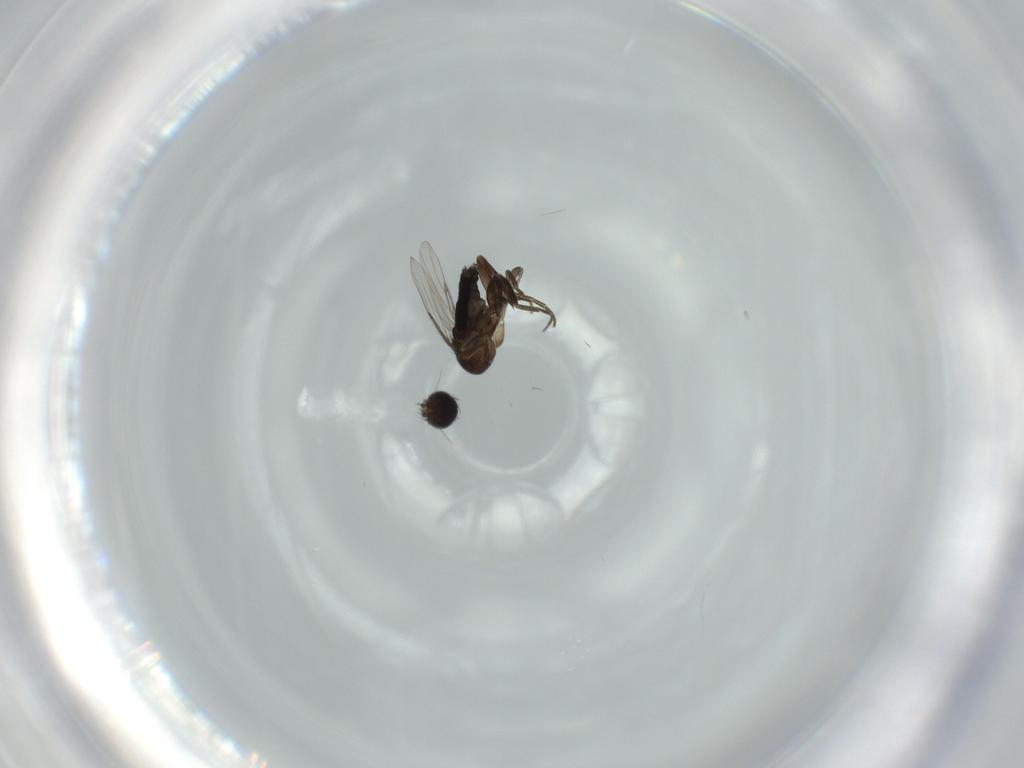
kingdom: Animalia
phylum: Arthropoda
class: Insecta
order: Diptera
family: Phoridae
